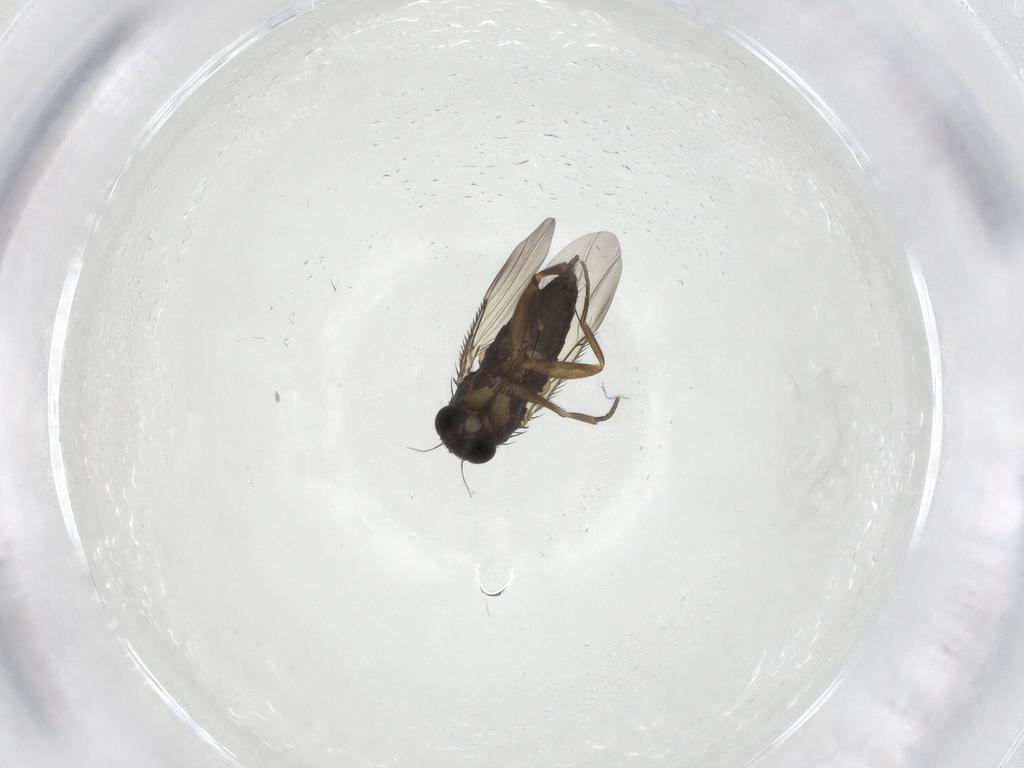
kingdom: Animalia
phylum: Arthropoda
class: Insecta
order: Diptera
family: Phoridae
